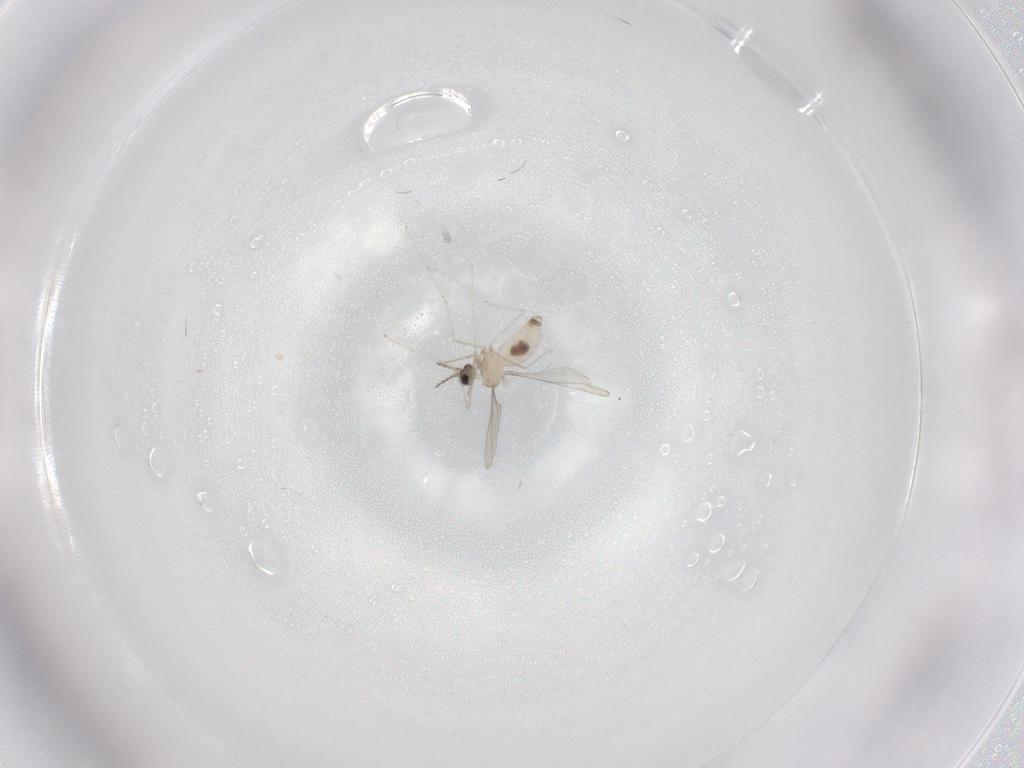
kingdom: Animalia
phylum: Arthropoda
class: Insecta
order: Diptera
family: Cecidomyiidae
